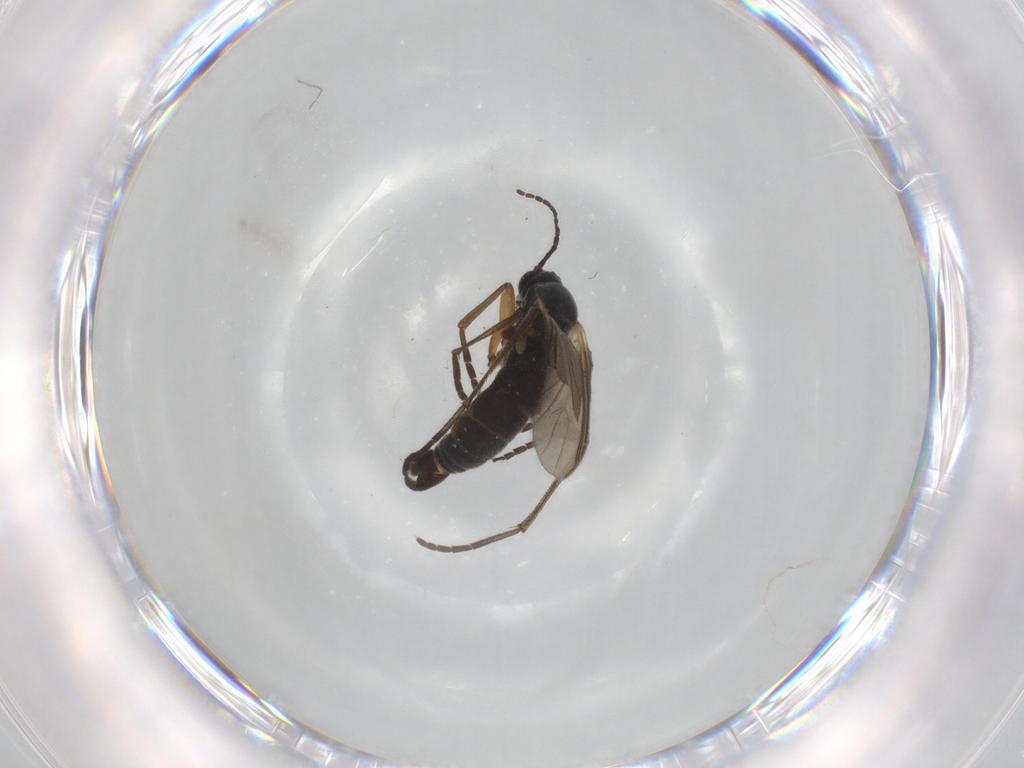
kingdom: Animalia
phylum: Arthropoda
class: Insecta
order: Diptera
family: Sciaridae
